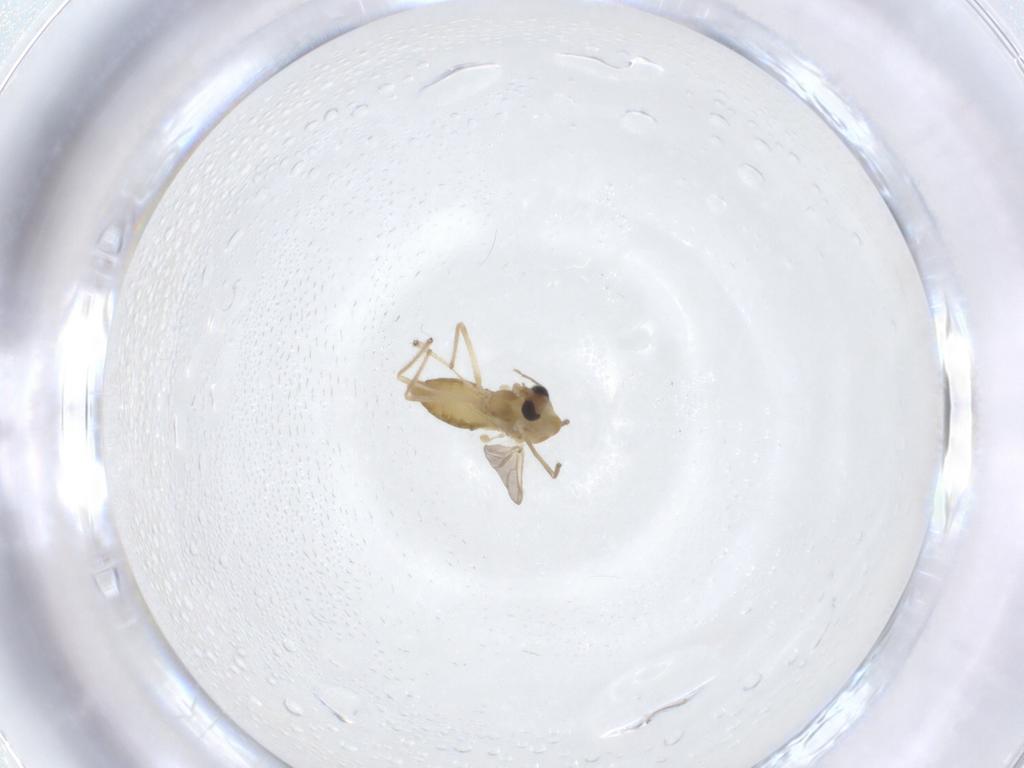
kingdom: Animalia
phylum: Arthropoda
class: Insecta
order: Diptera
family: Chironomidae
